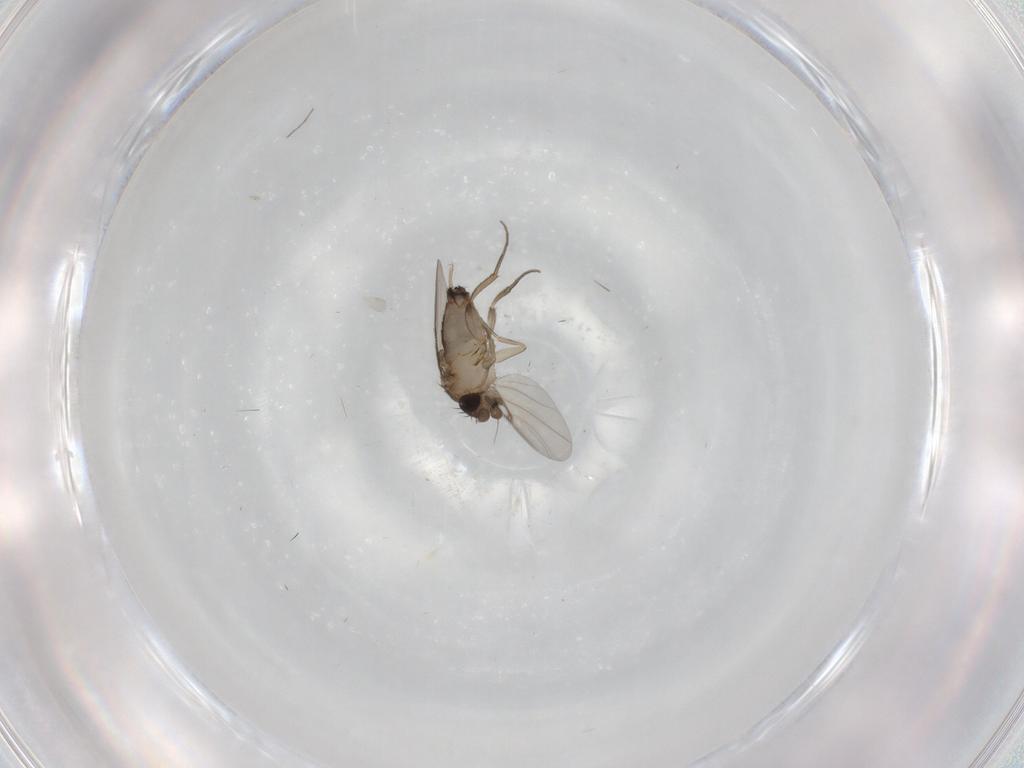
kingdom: Animalia
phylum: Arthropoda
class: Insecta
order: Diptera
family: Phoridae
